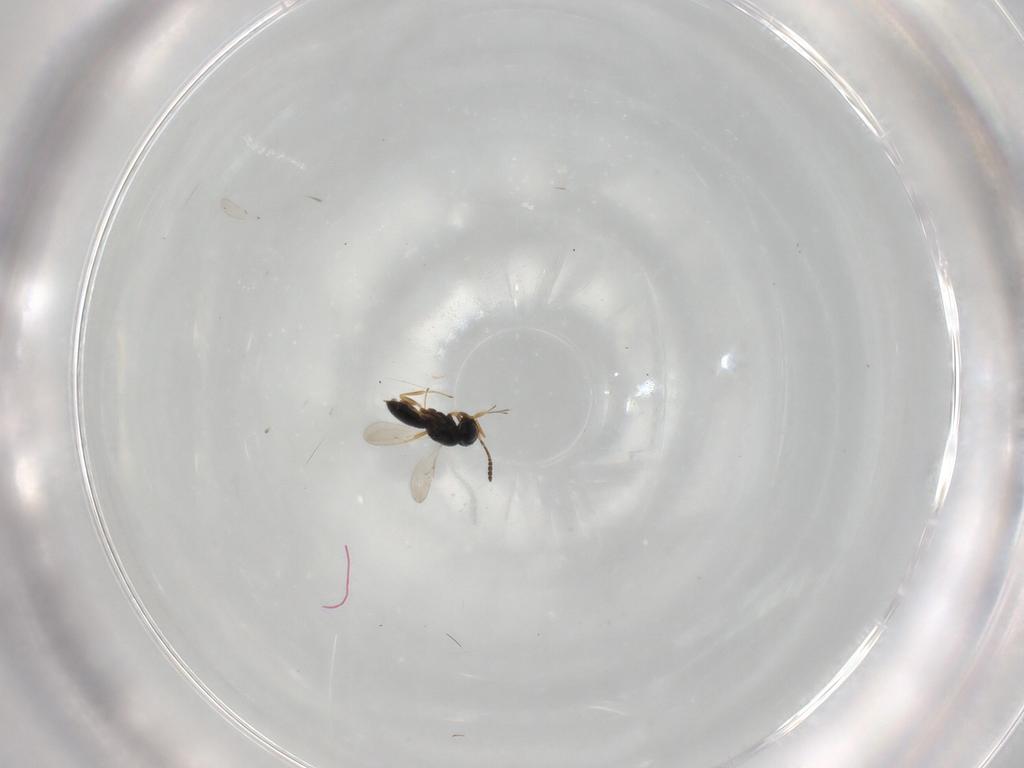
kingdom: Animalia
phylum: Arthropoda
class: Insecta
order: Hymenoptera
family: Scelionidae
